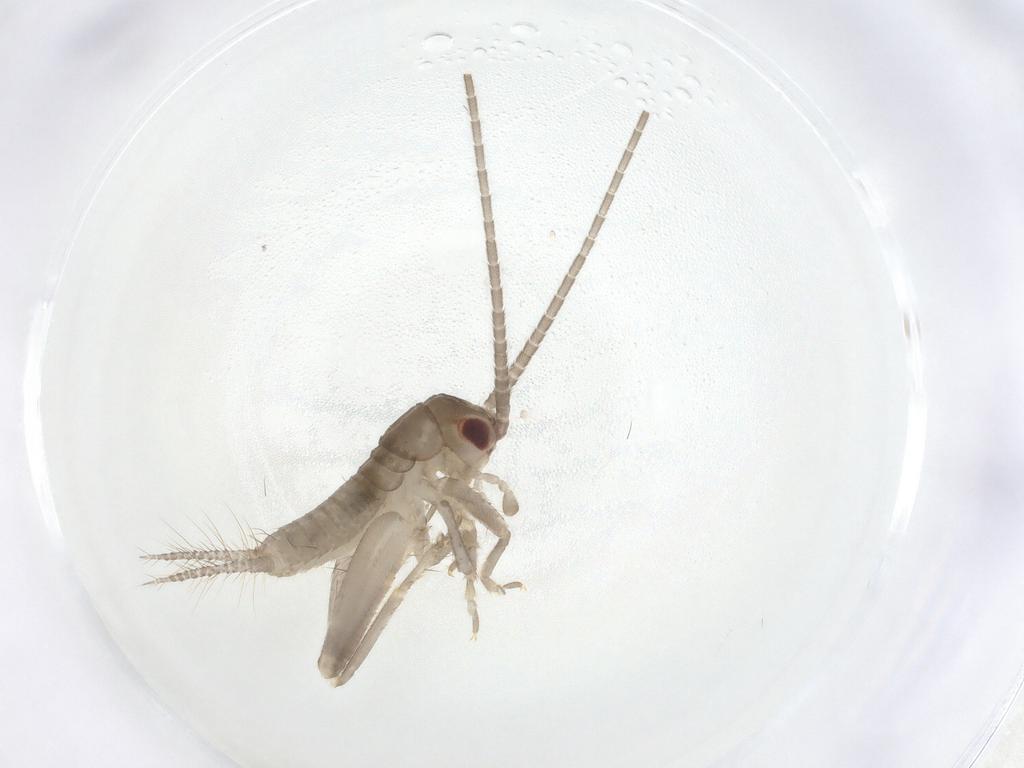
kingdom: Animalia
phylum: Arthropoda
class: Insecta
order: Orthoptera
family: Gryllidae
